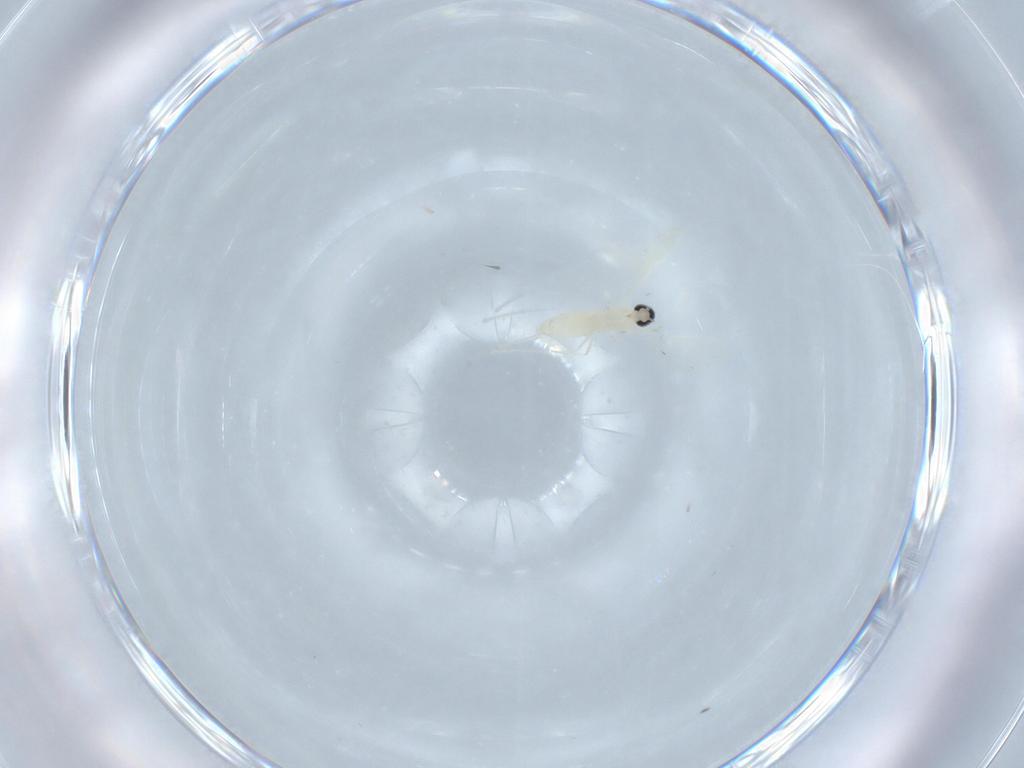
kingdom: Animalia
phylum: Arthropoda
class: Insecta
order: Diptera
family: Cecidomyiidae
